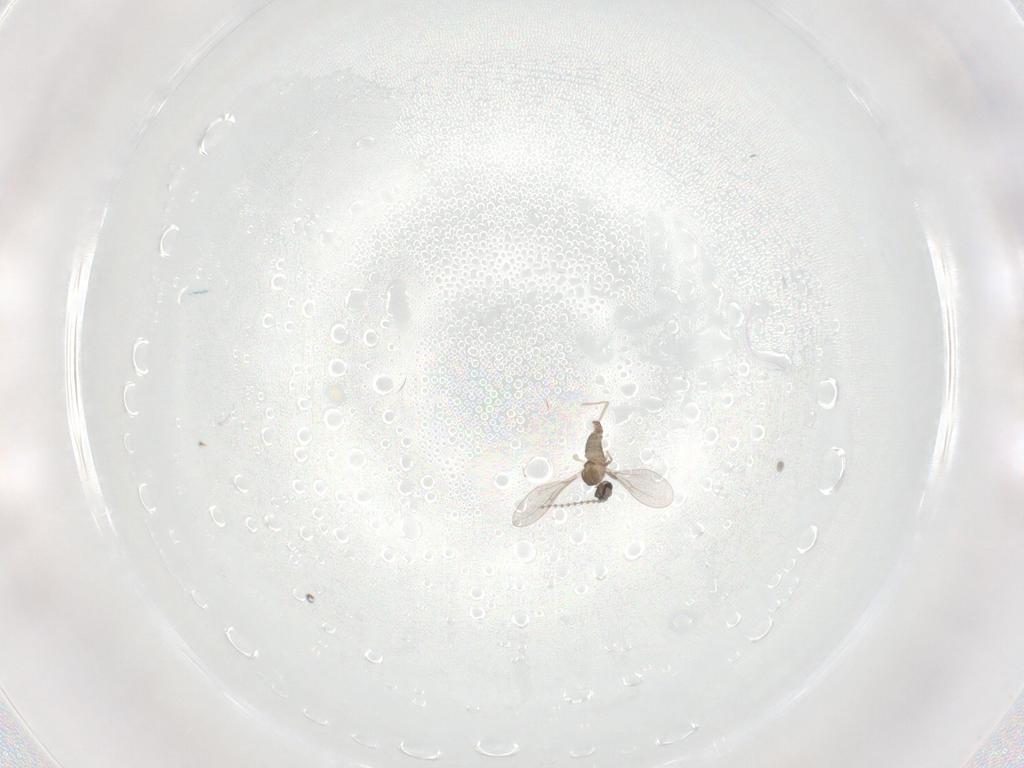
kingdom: Animalia
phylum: Arthropoda
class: Insecta
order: Diptera
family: Cecidomyiidae
